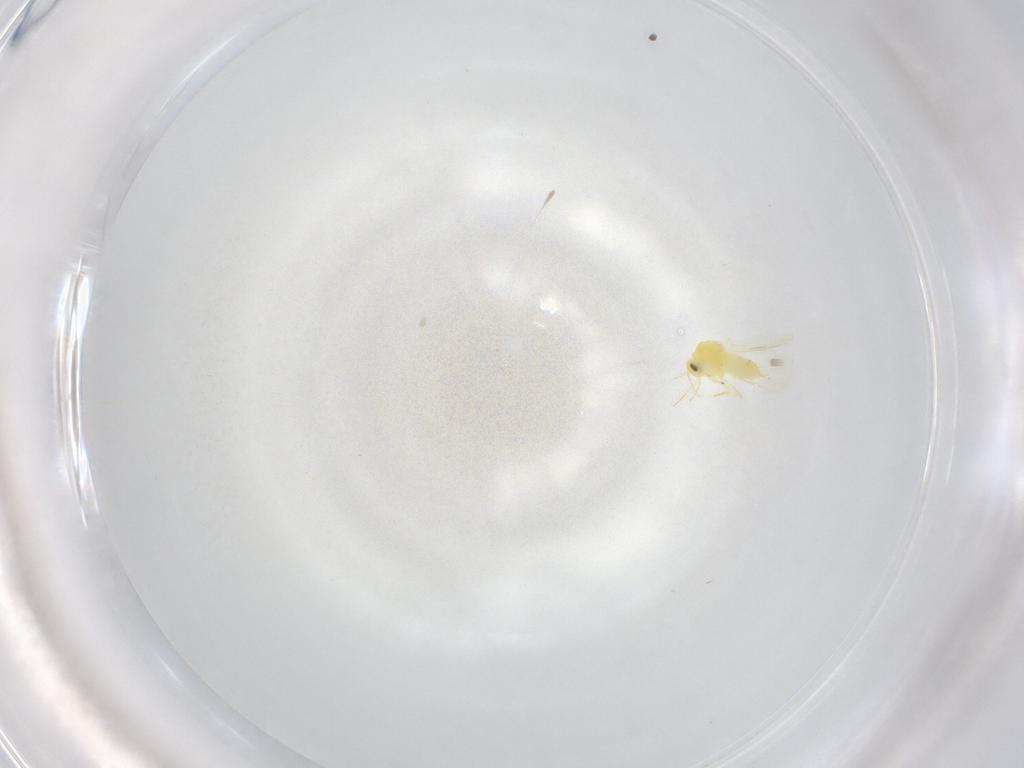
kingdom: Animalia
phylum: Arthropoda
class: Insecta
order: Hemiptera
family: Aleyrodidae
